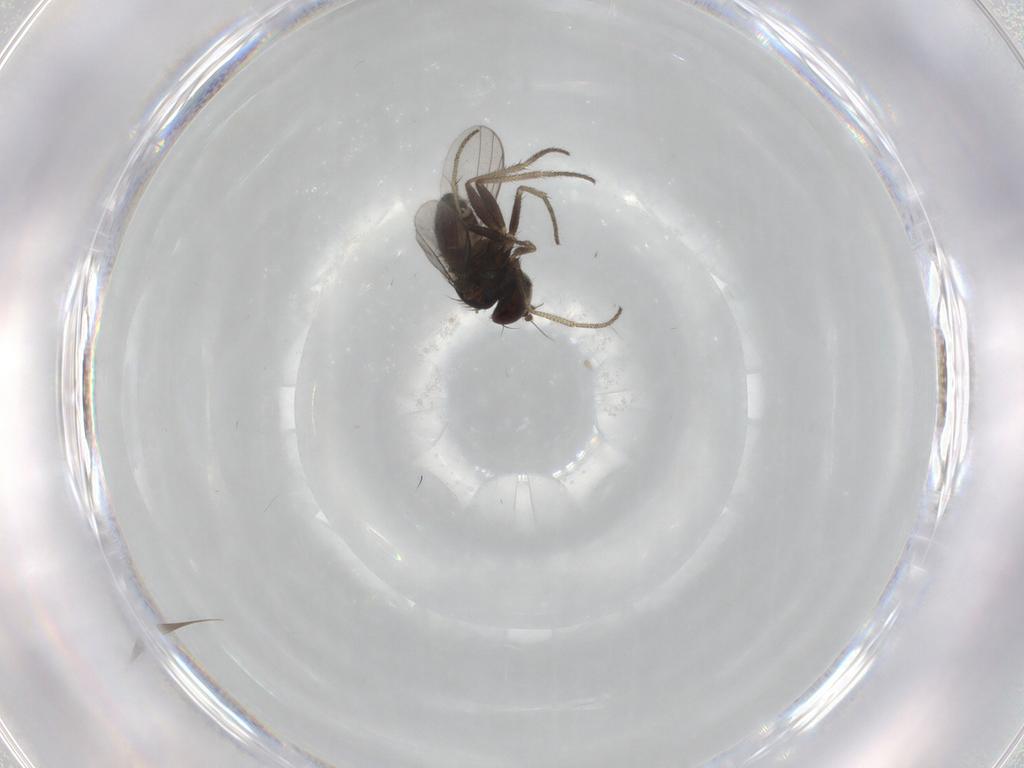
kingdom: Animalia
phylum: Arthropoda
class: Insecta
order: Diptera
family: Dolichopodidae
